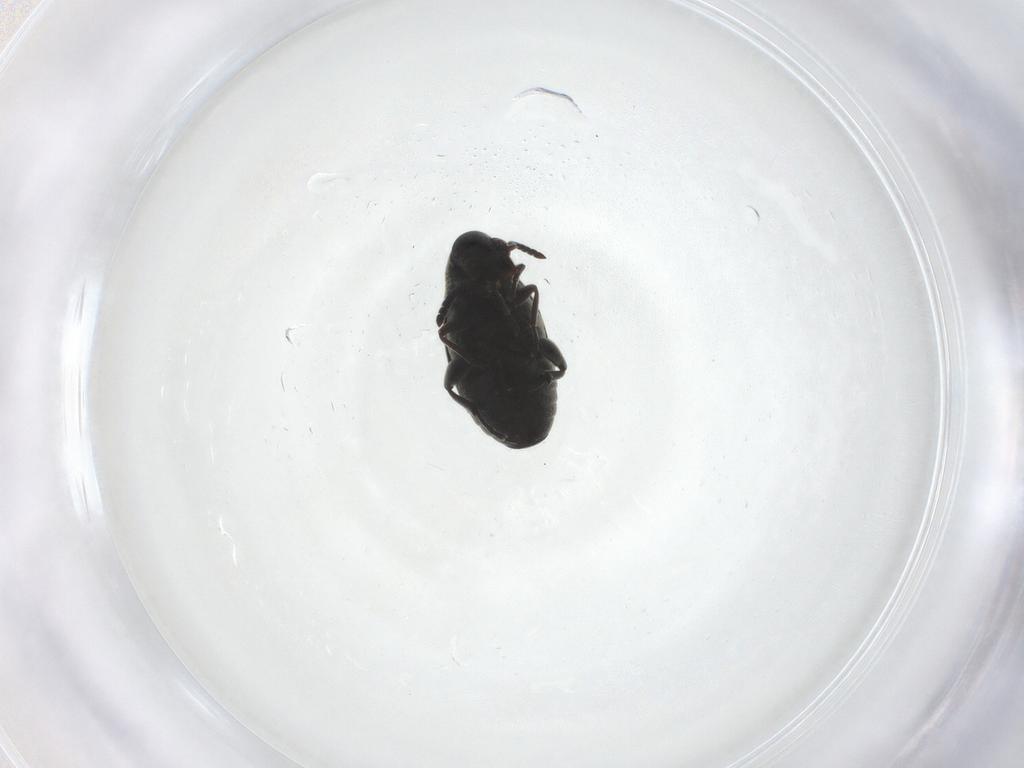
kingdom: Animalia
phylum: Arthropoda
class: Insecta
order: Coleoptera
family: Chrysomelidae
